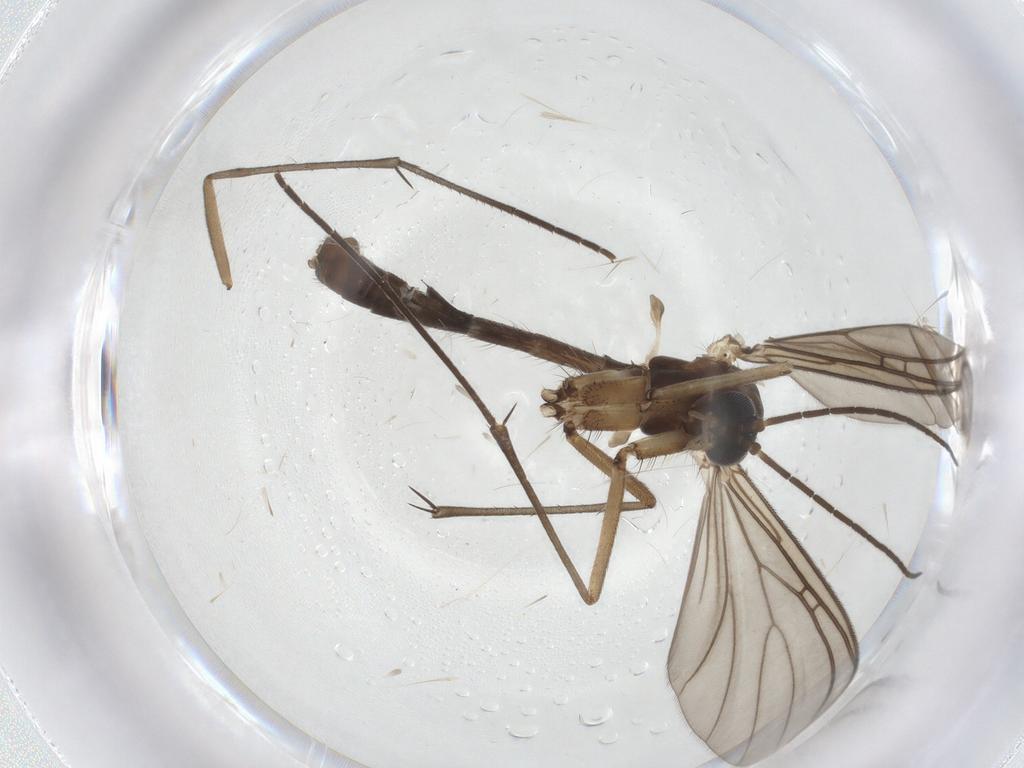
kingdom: Animalia
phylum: Arthropoda
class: Insecta
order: Diptera
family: Mycetophilidae
